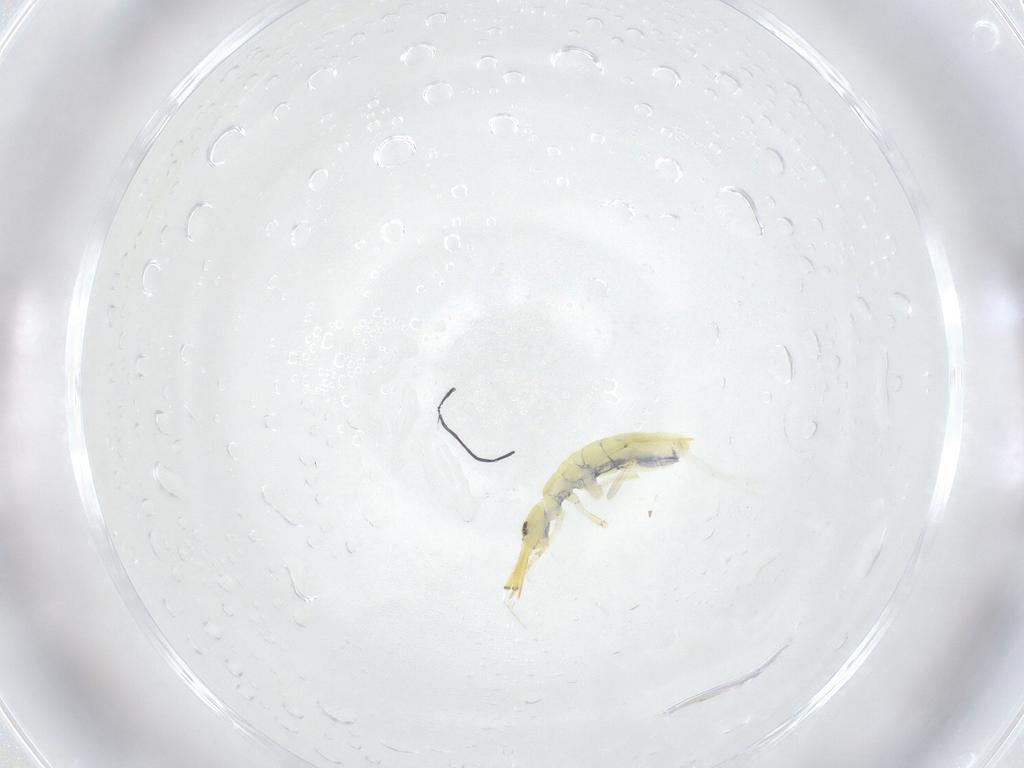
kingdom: Animalia
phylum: Arthropoda
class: Collembola
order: Entomobryomorpha
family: Paronellidae
